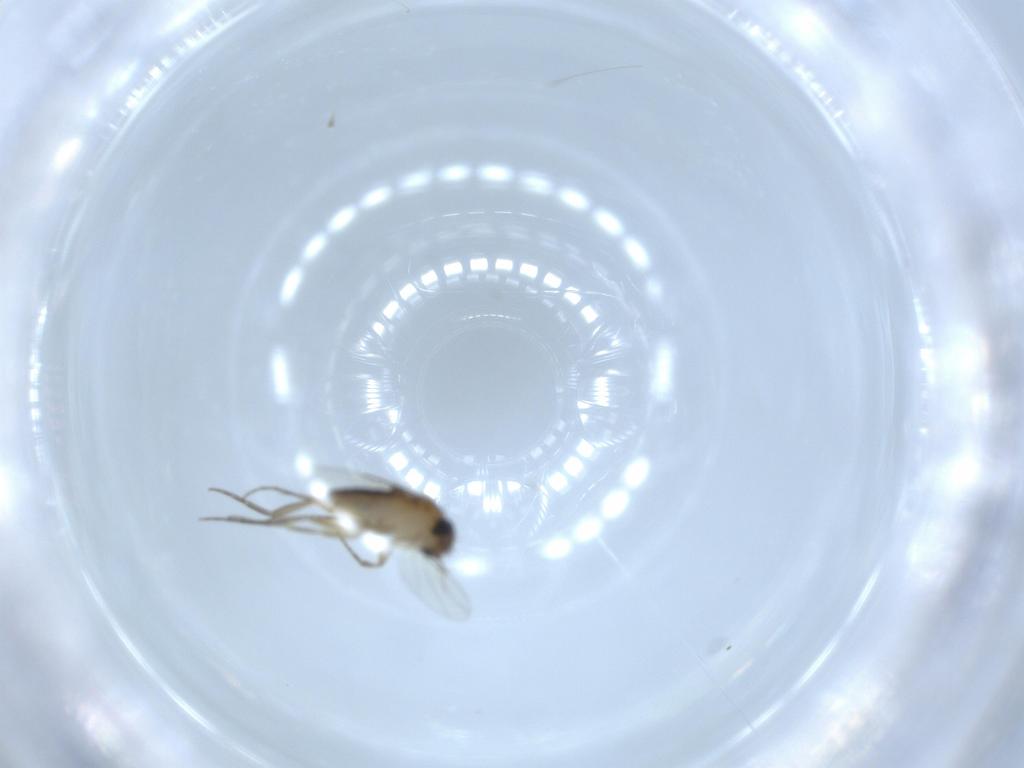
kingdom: Animalia
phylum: Arthropoda
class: Insecta
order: Diptera
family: Phoridae
